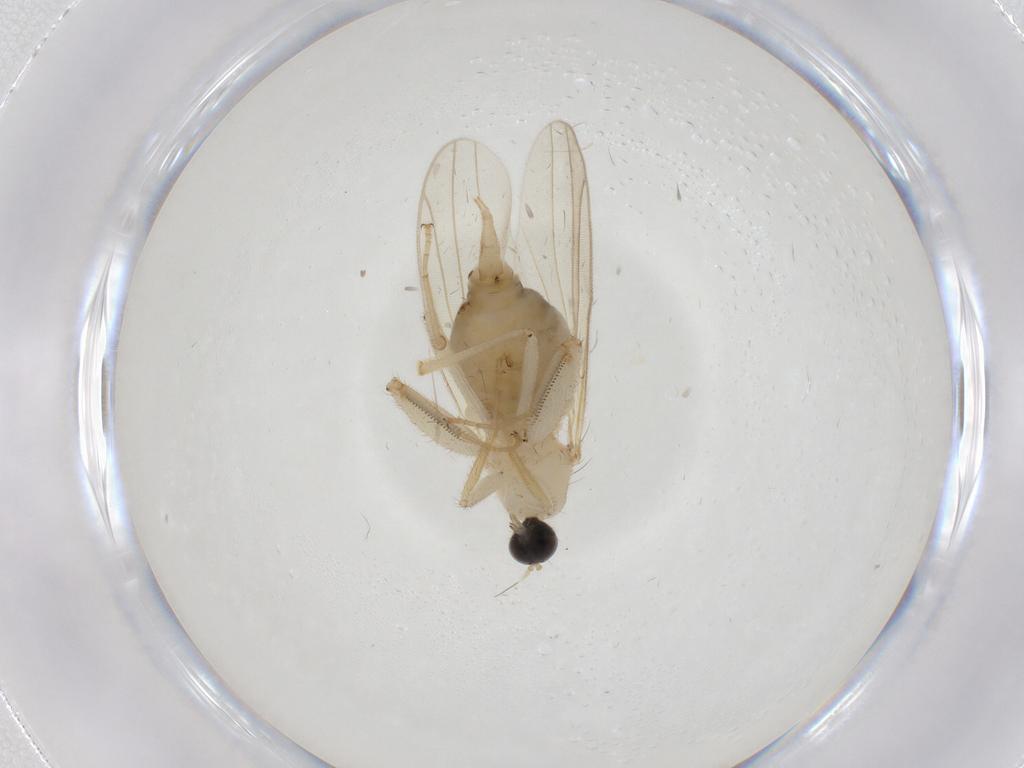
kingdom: Animalia
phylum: Arthropoda
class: Insecta
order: Diptera
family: Hybotidae
